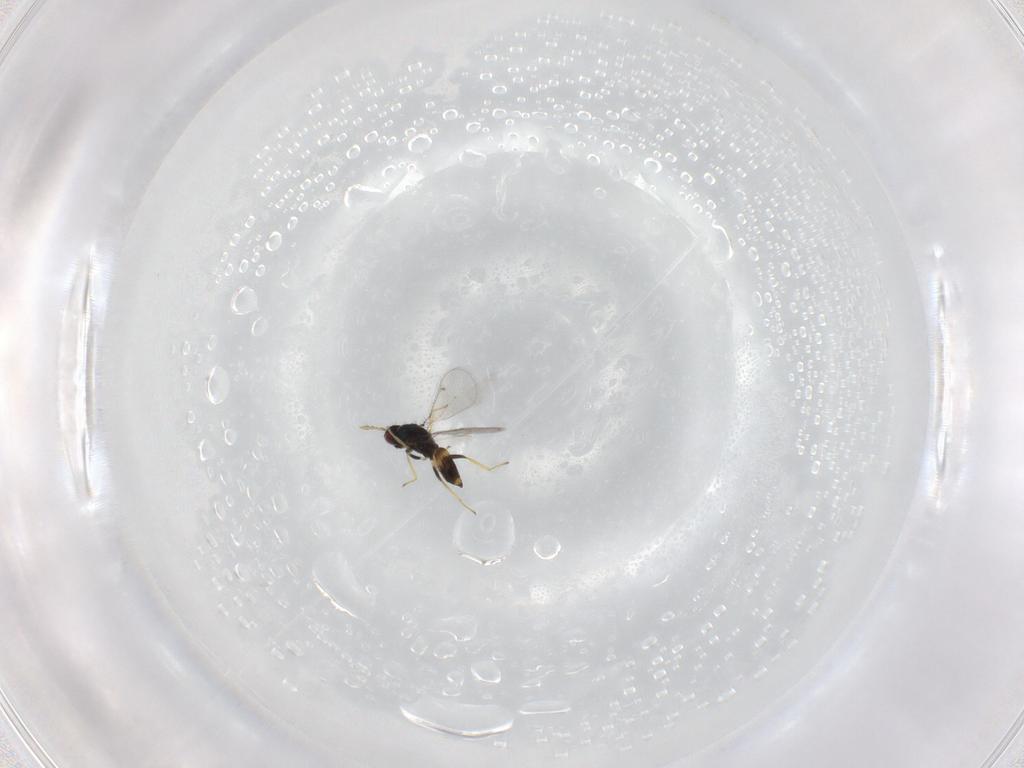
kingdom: Animalia
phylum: Arthropoda
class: Insecta
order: Hymenoptera
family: Eulophidae
